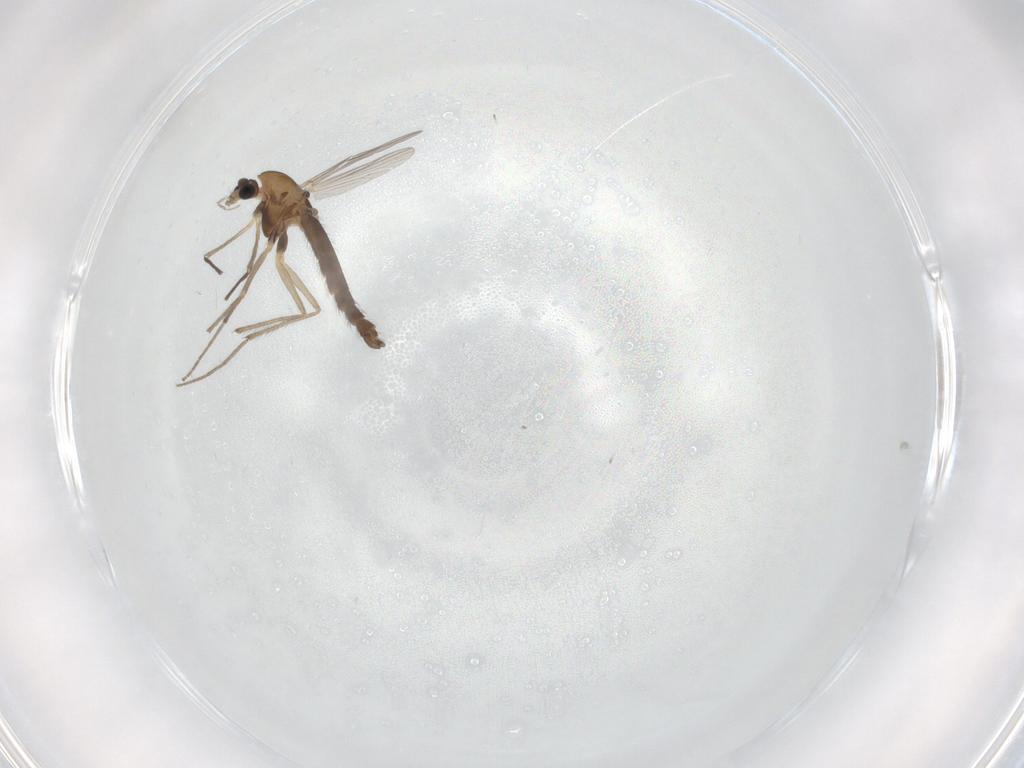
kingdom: Animalia
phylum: Arthropoda
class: Insecta
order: Diptera
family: Chironomidae
